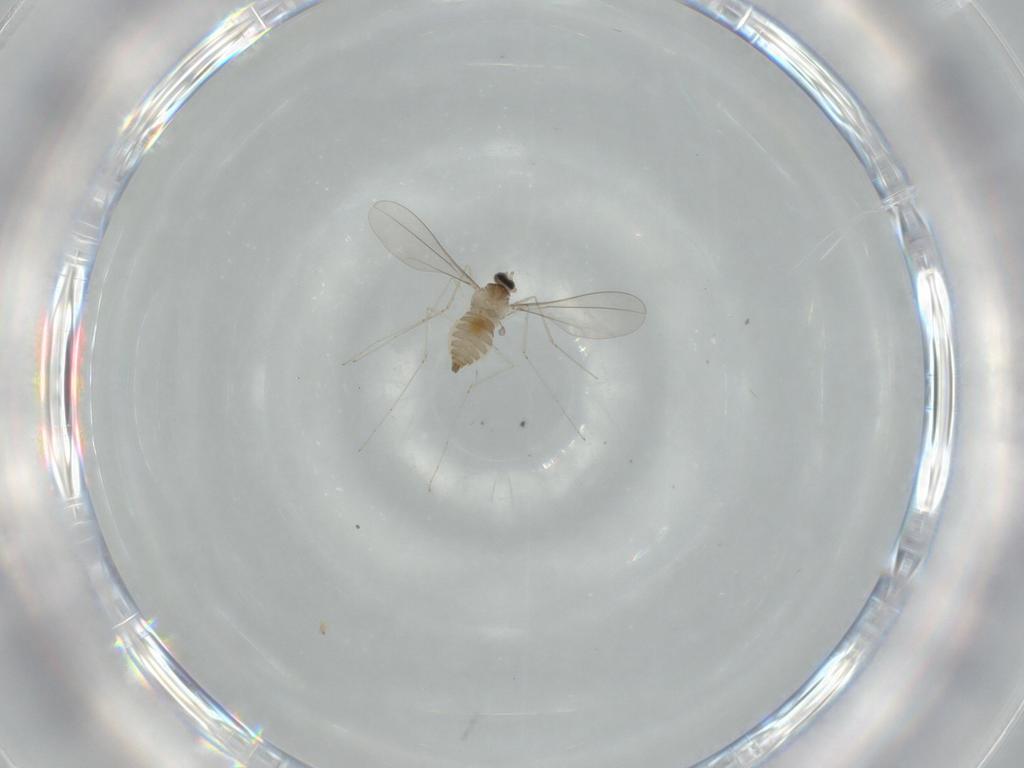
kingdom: Animalia
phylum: Arthropoda
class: Insecta
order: Diptera
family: Cecidomyiidae
